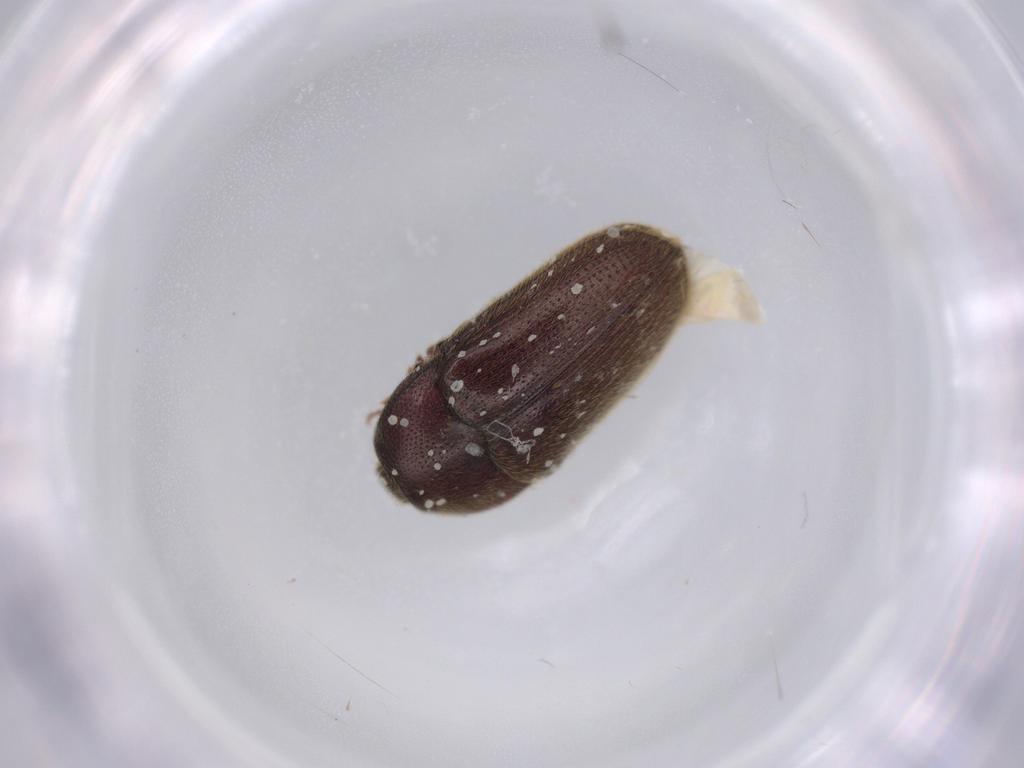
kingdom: Animalia
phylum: Arthropoda
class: Insecta
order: Coleoptera
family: Throscidae
